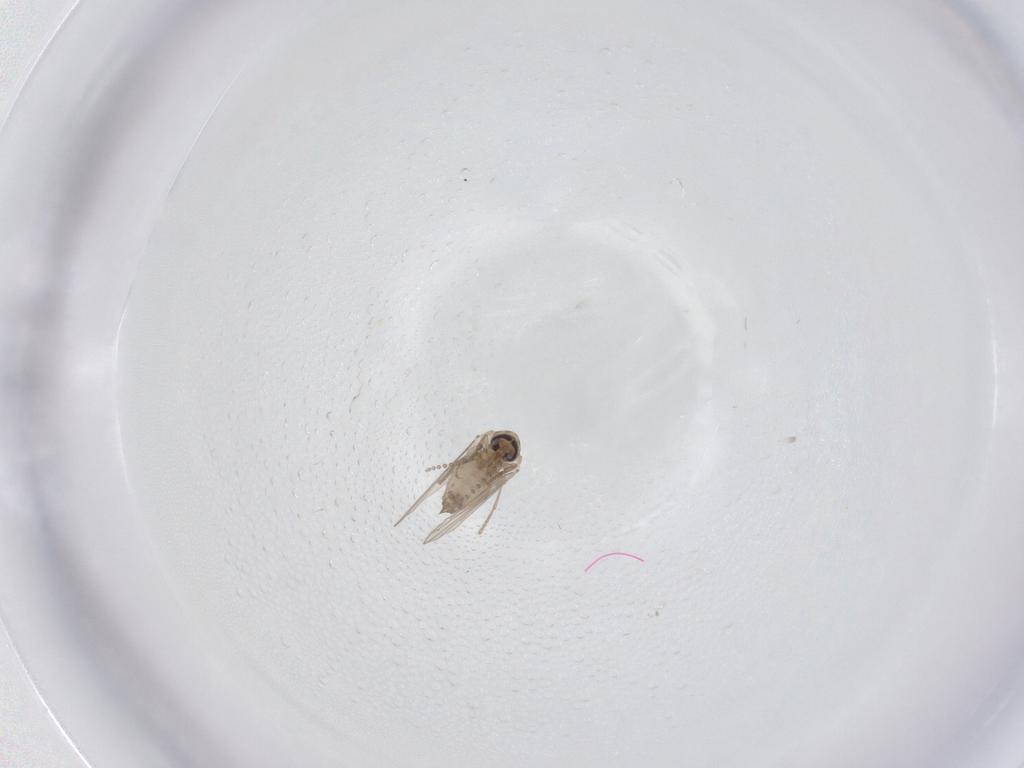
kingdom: Animalia
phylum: Arthropoda
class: Insecta
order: Diptera
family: Psychodidae
